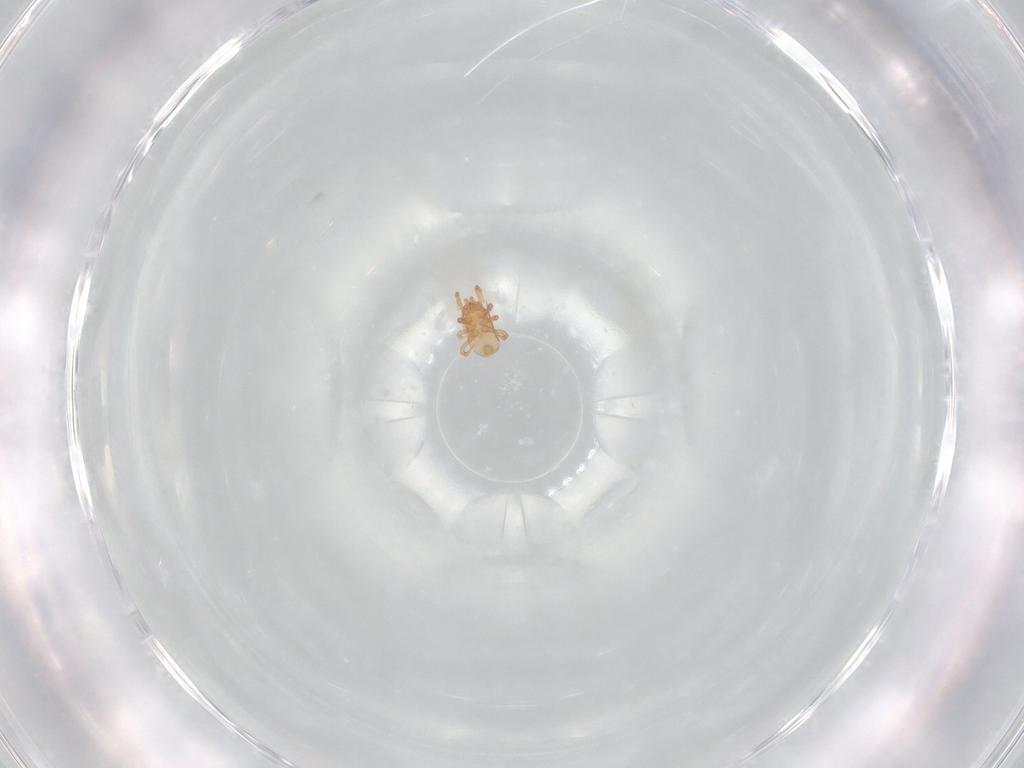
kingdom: Animalia
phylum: Arthropoda
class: Arachnida
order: Mesostigmata
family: Ascidae
